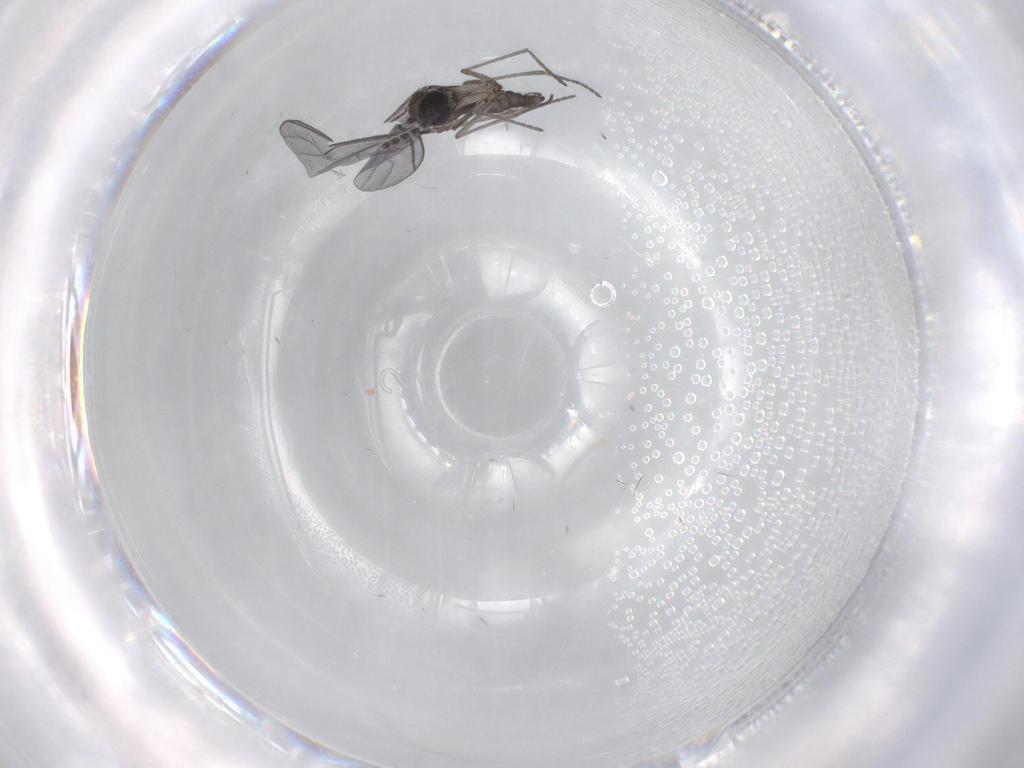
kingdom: Animalia
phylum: Arthropoda
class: Insecta
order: Diptera
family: Sciaridae
